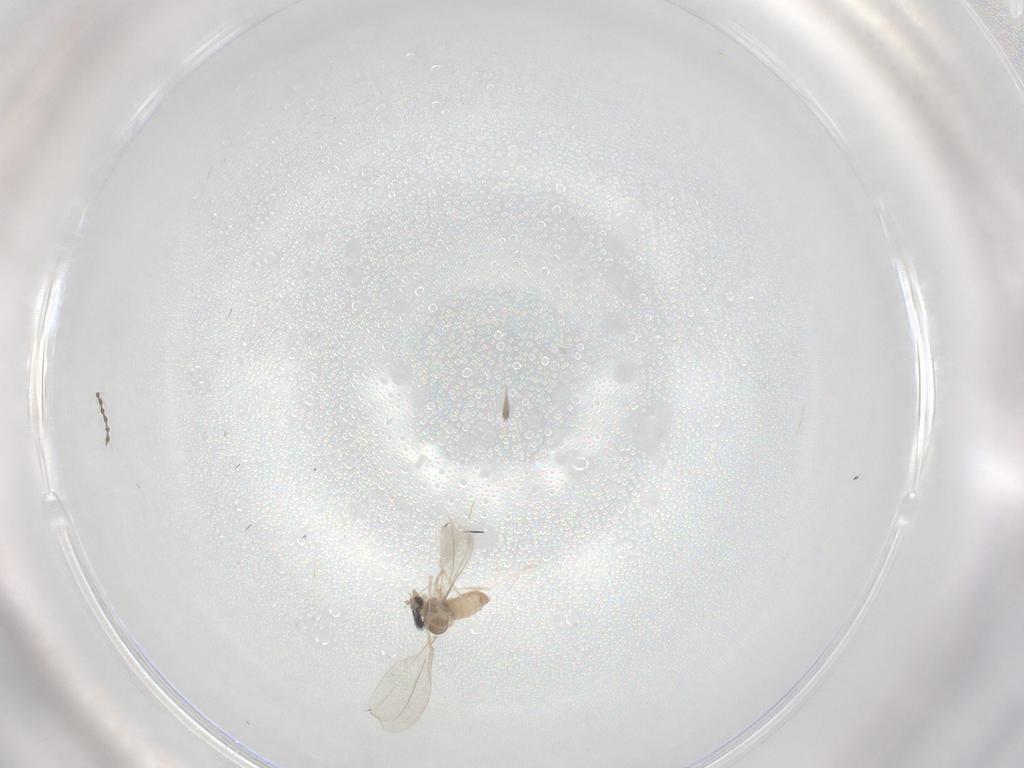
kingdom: Animalia
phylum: Arthropoda
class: Insecta
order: Diptera
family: Cecidomyiidae
